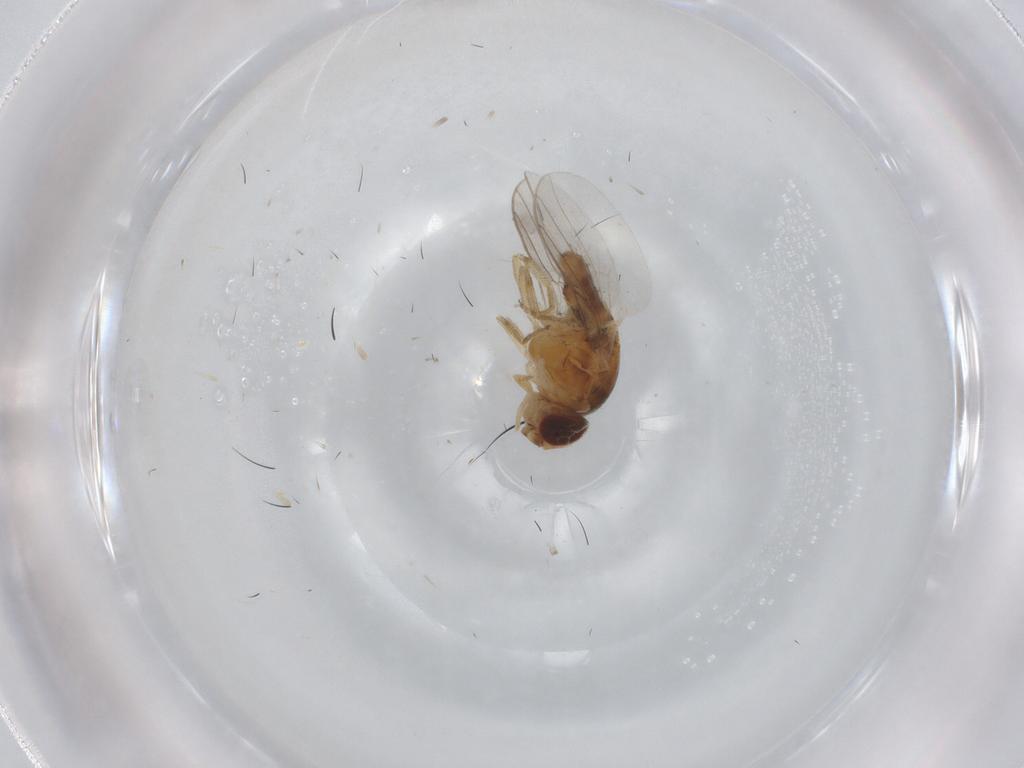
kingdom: Animalia
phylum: Arthropoda
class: Insecta
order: Diptera
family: Chloropidae
